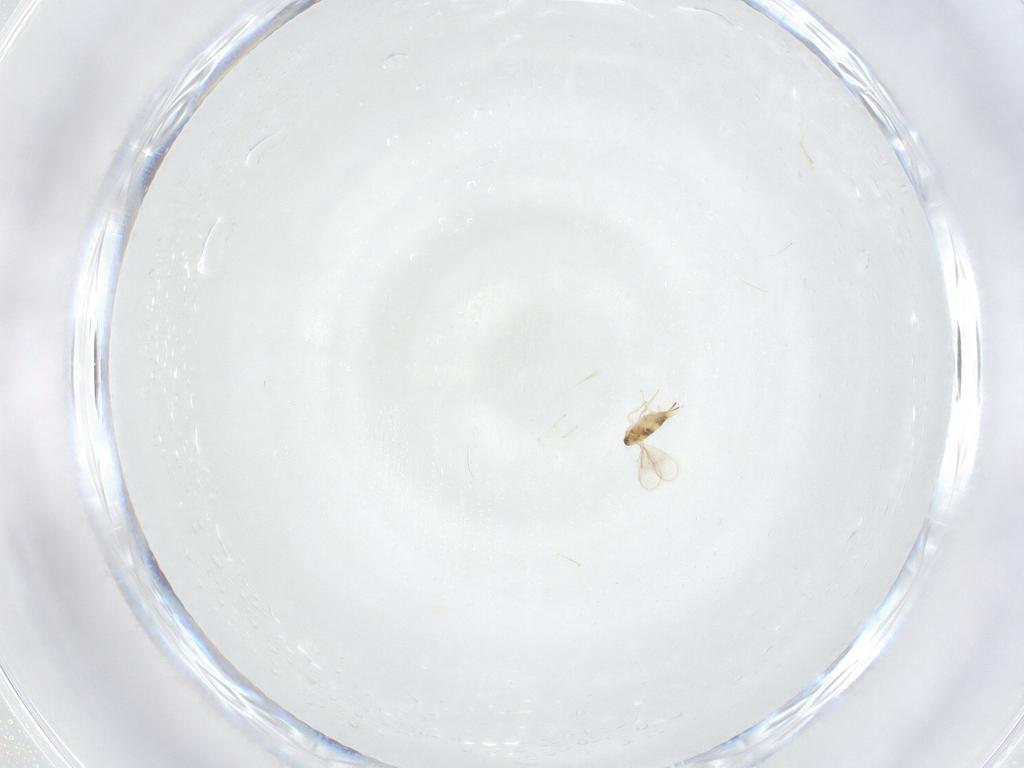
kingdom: Animalia
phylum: Arthropoda
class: Insecta
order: Hymenoptera
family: Aphelinidae
